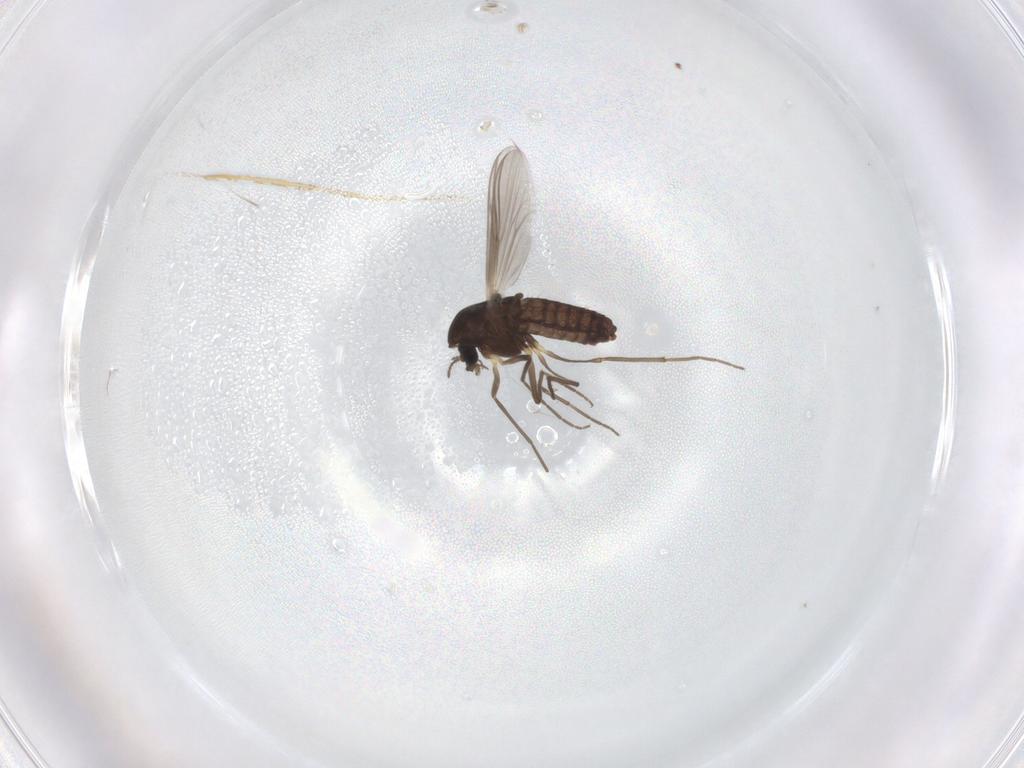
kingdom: Animalia
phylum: Arthropoda
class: Insecta
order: Diptera
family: Chironomidae
